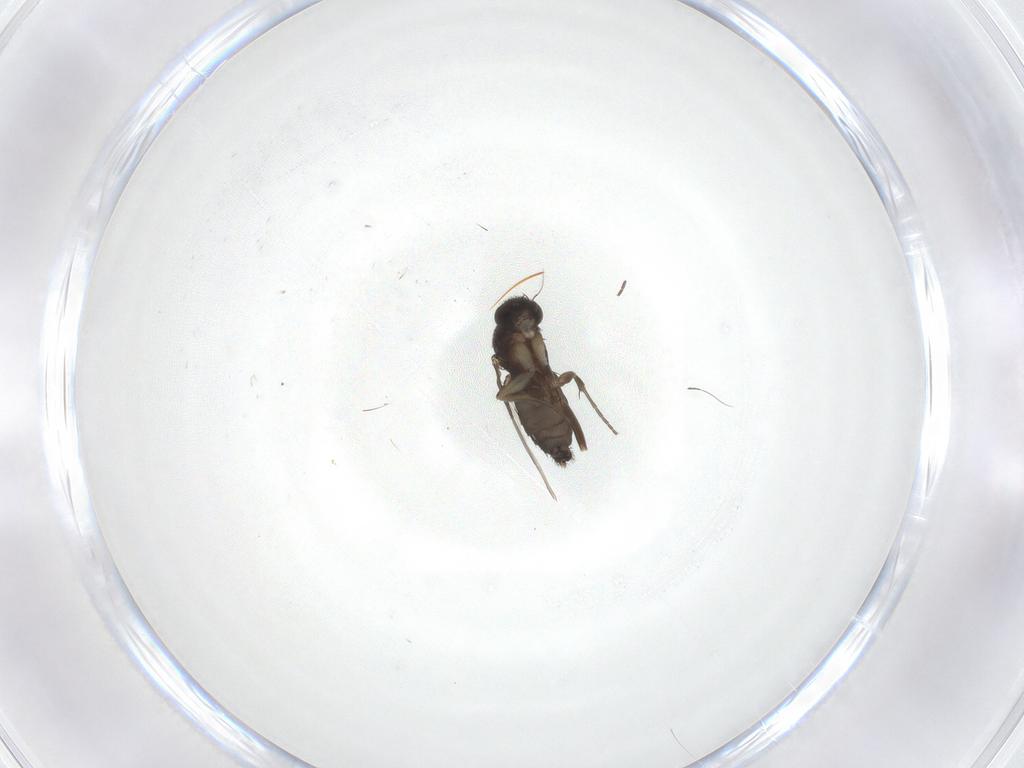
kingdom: Animalia
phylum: Arthropoda
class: Insecta
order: Diptera
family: Phoridae
